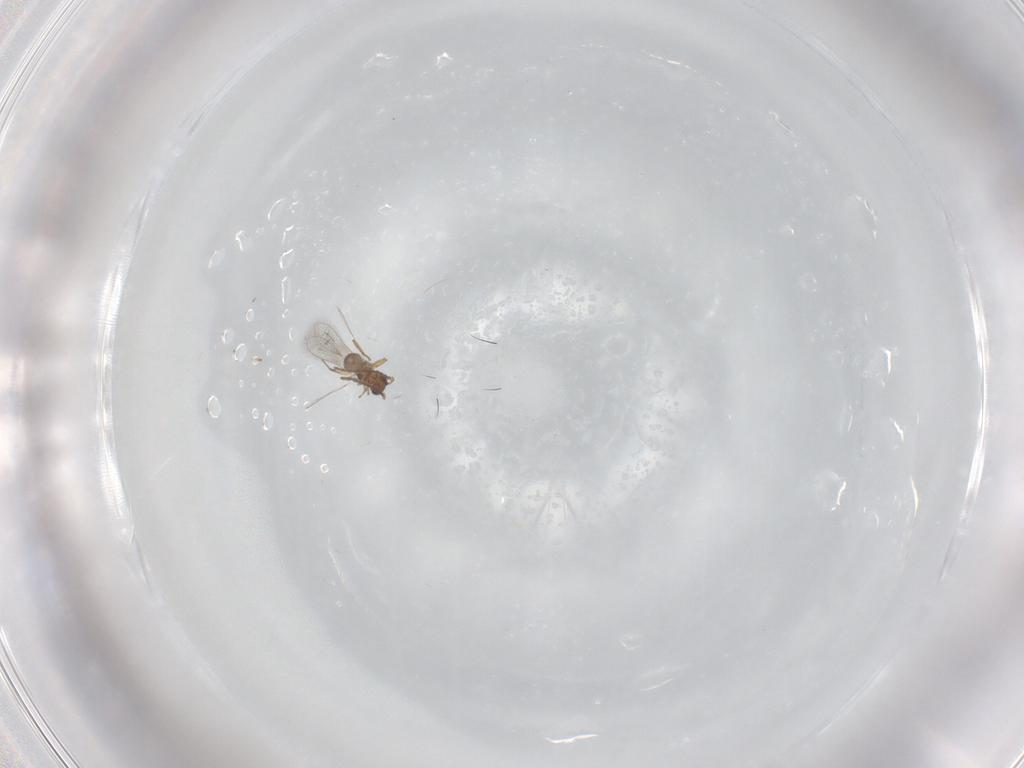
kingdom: Animalia
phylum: Arthropoda
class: Insecta
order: Hymenoptera
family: Mymaridae
